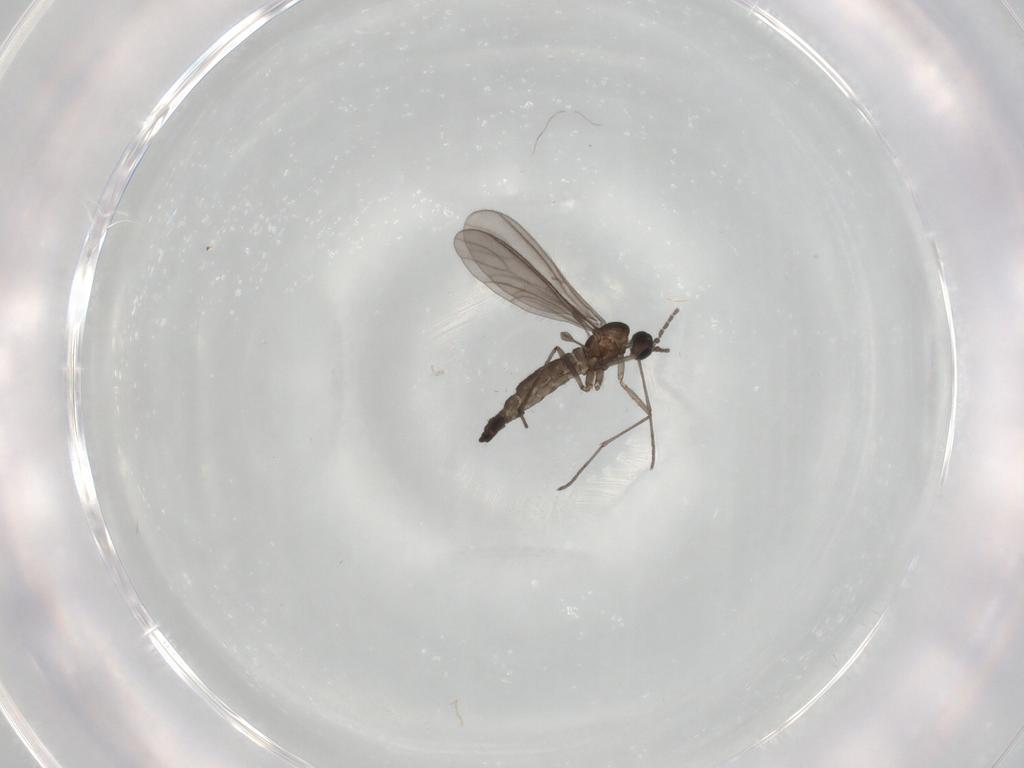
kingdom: Animalia
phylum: Arthropoda
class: Insecta
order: Diptera
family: Sciaridae
